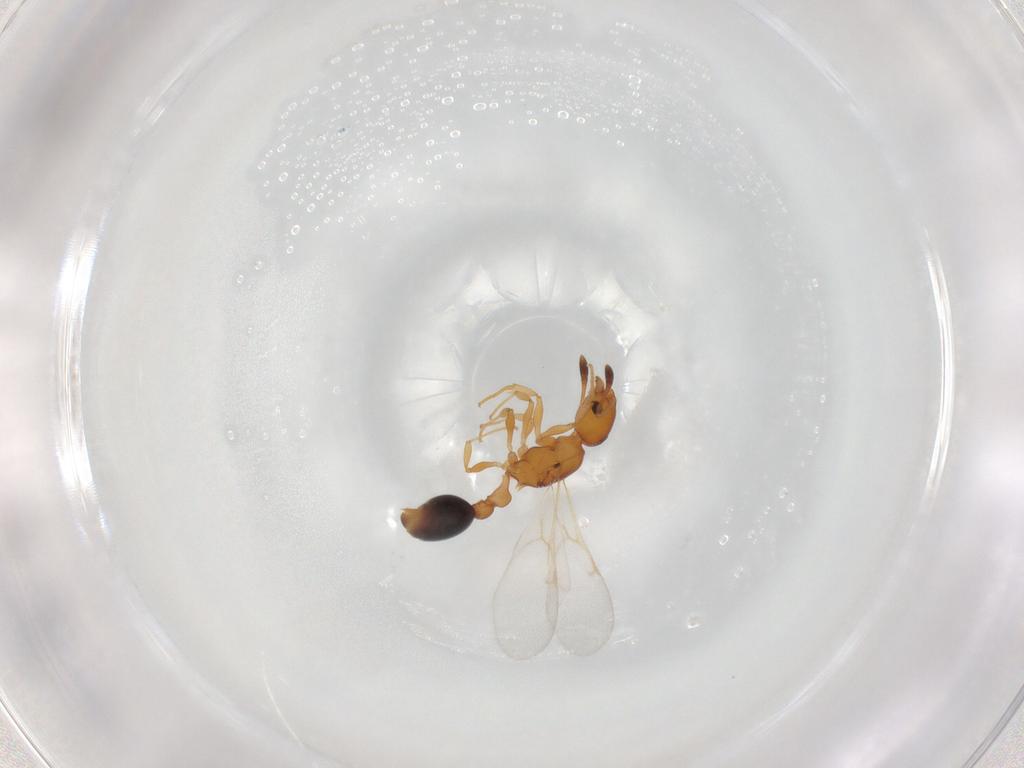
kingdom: Animalia
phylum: Arthropoda
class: Insecta
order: Hymenoptera
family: Formicidae
